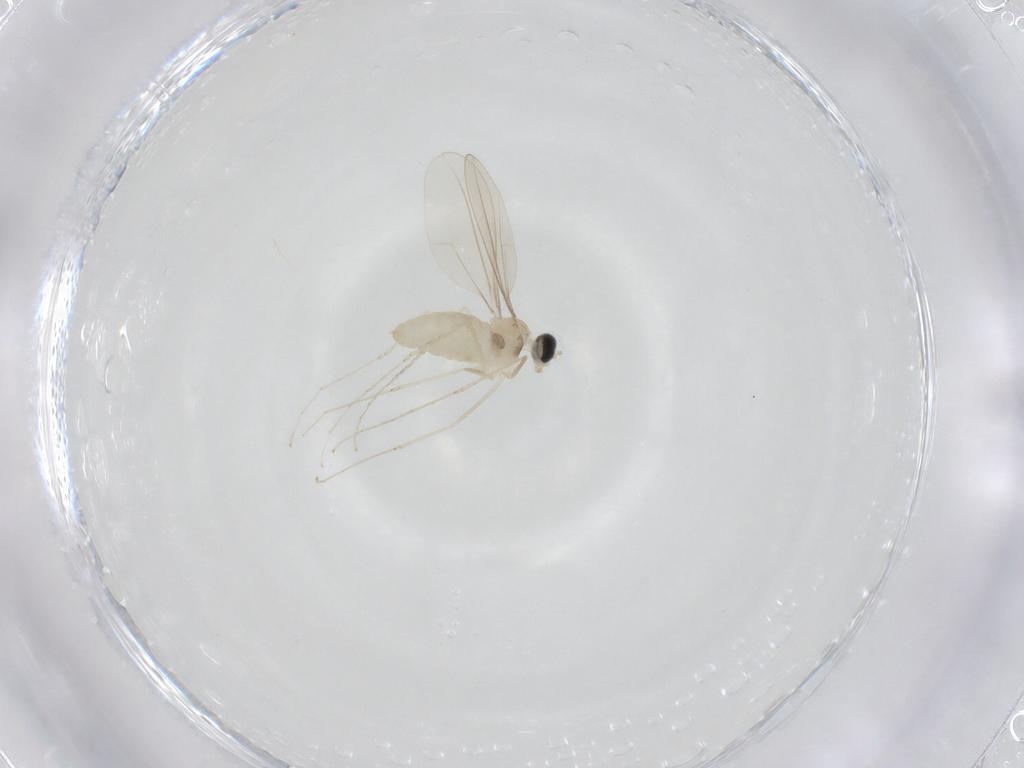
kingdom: Animalia
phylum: Arthropoda
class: Insecta
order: Diptera
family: Cecidomyiidae
